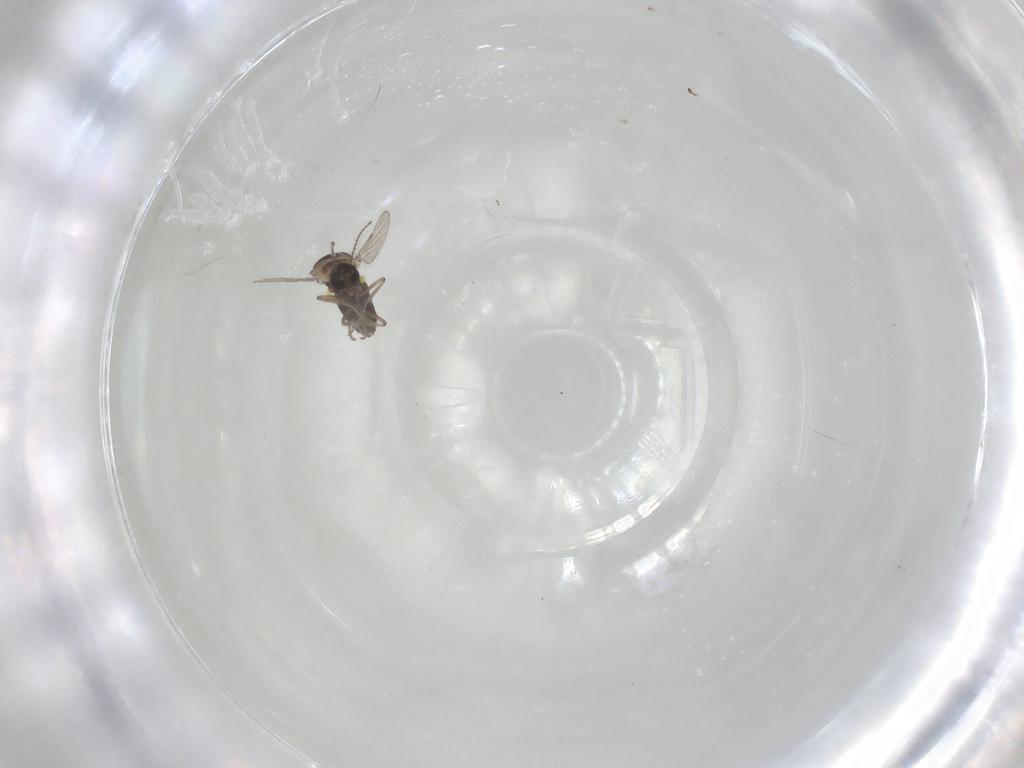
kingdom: Animalia
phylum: Arthropoda
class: Insecta
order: Diptera
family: Ceratopogonidae
